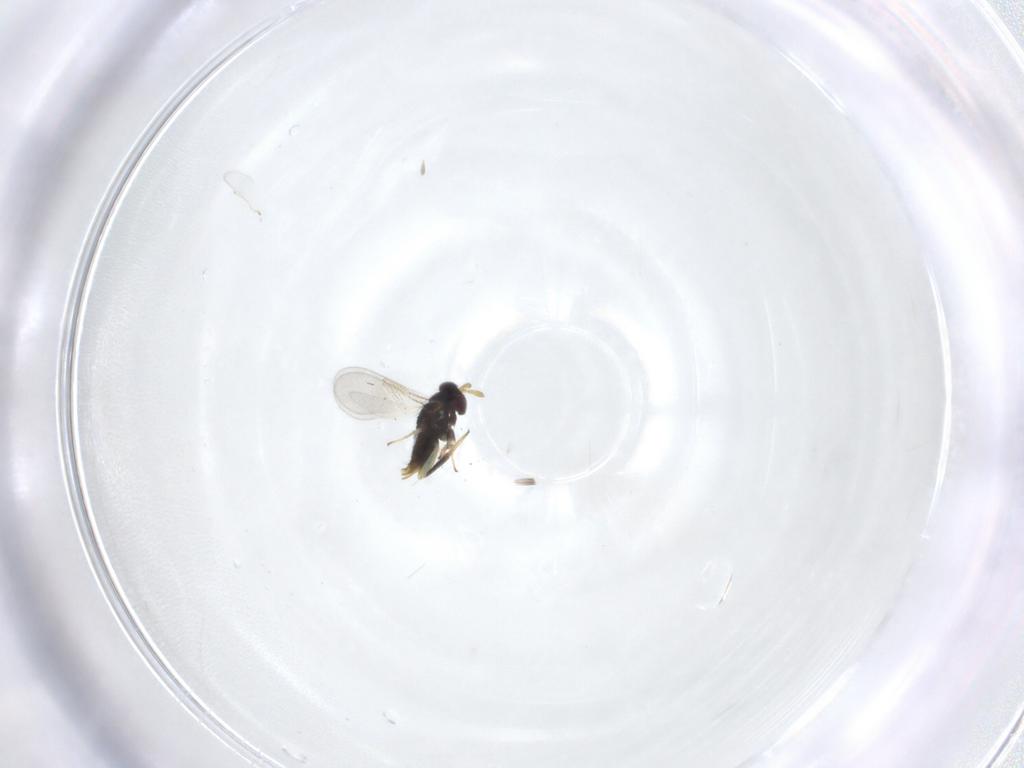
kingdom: Animalia
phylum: Arthropoda
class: Insecta
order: Hymenoptera
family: Aphelinidae
